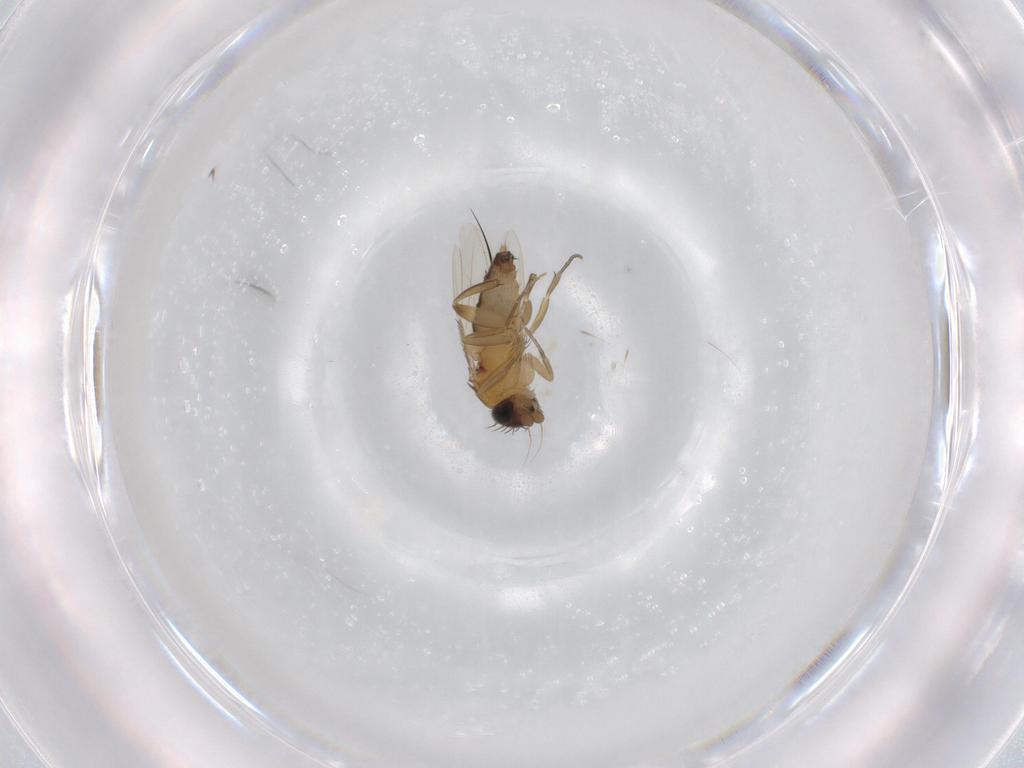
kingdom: Animalia
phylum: Arthropoda
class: Insecta
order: Diptera
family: Phoridae
